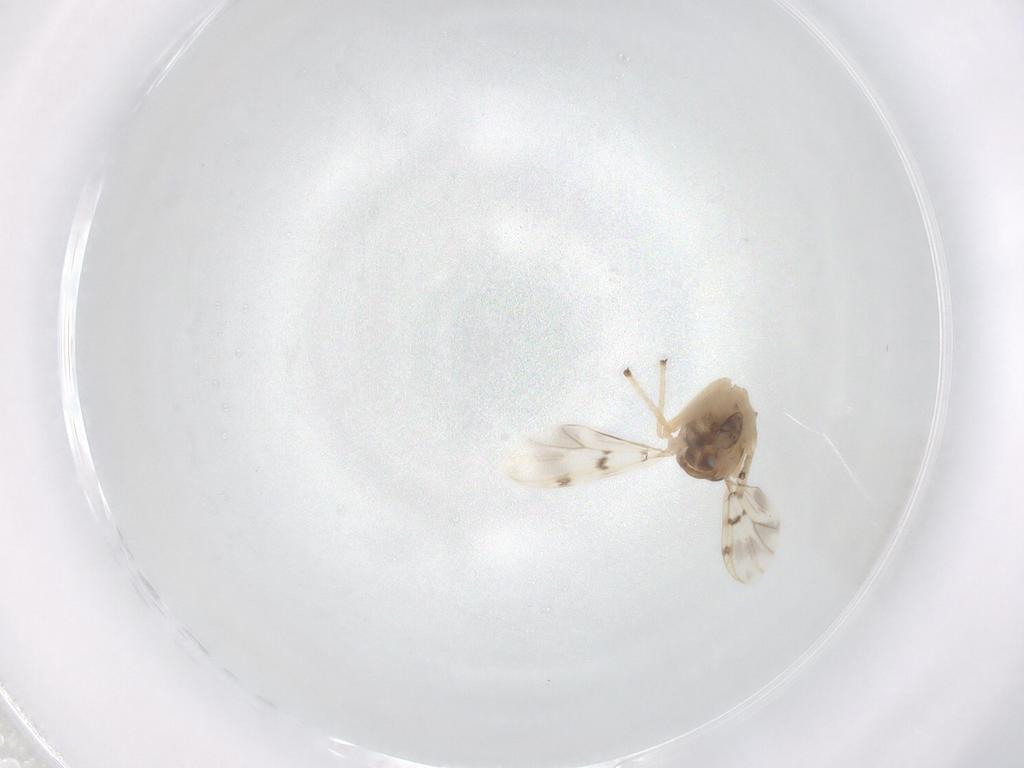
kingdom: Animalia
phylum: Arthropoda
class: Insecta
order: Diptera
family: Chironomidae
